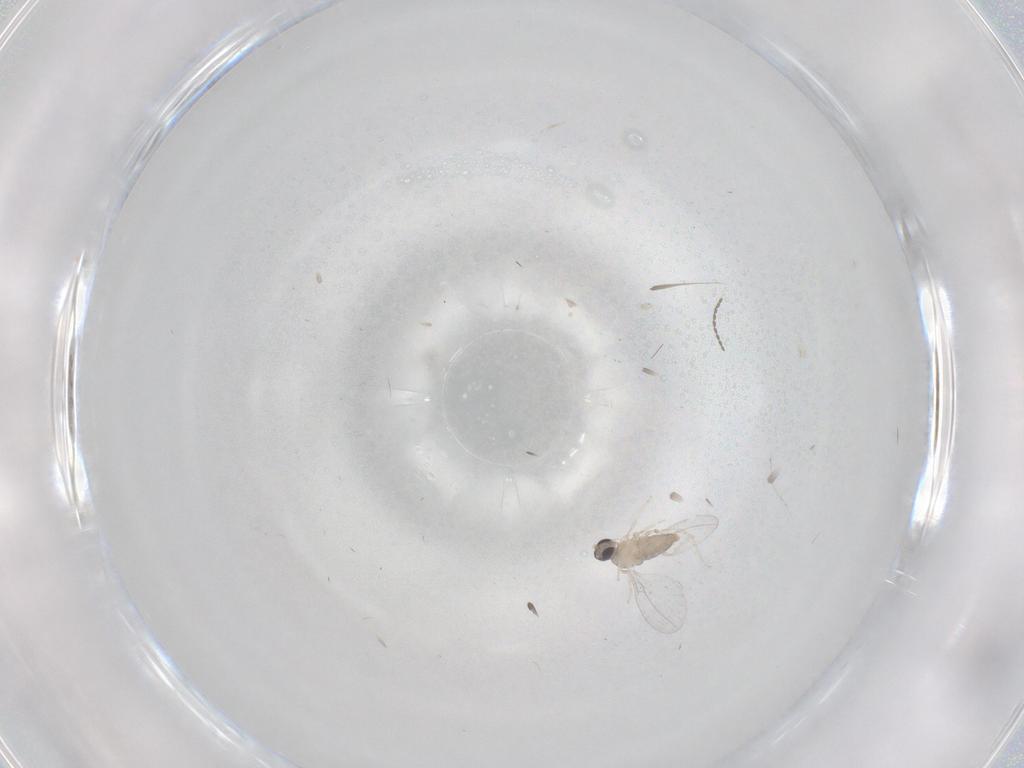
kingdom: Animalia
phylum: Arthropoda
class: Insecta
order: Diptera
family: Cecidomyiidae
